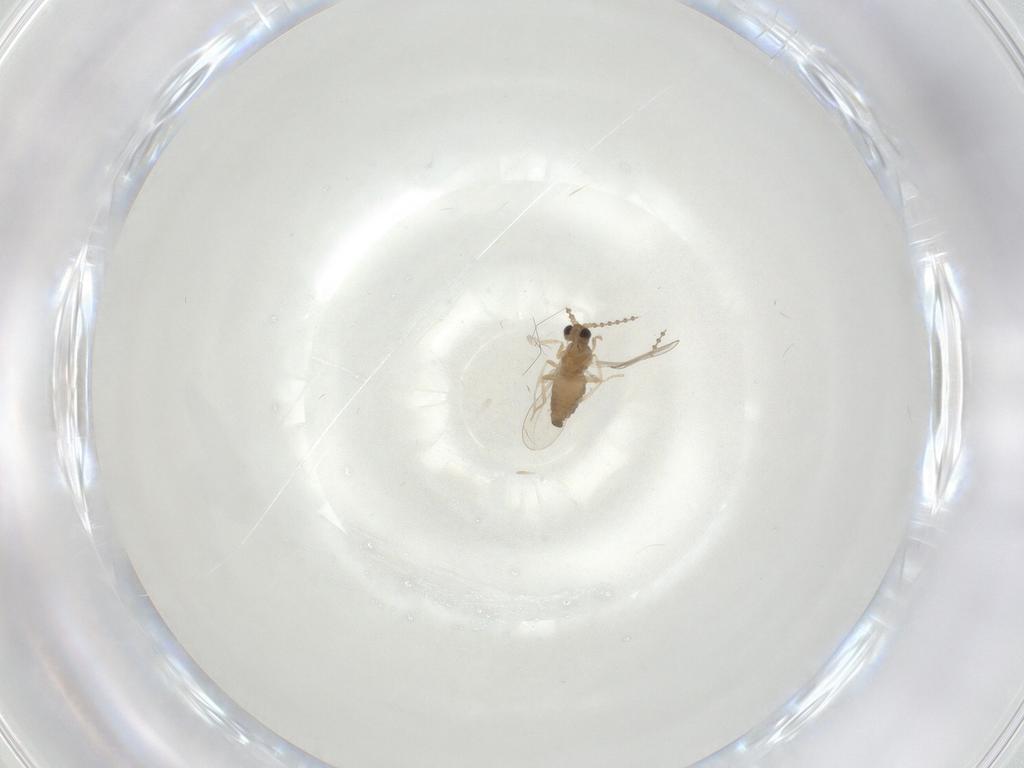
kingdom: Animalia
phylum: Arthropoda
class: Insecta
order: Diptera
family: Cecidomyiidae
